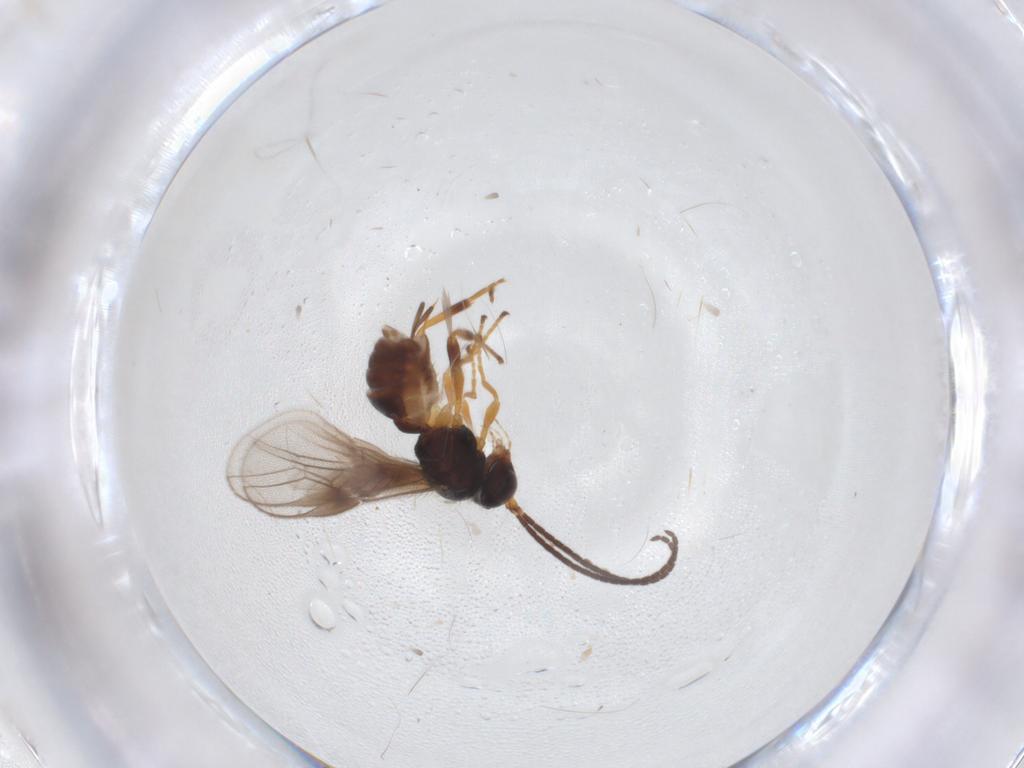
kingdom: Animalia
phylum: Arthropoda
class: Insecta
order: Hymenoptera
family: Braconidae
